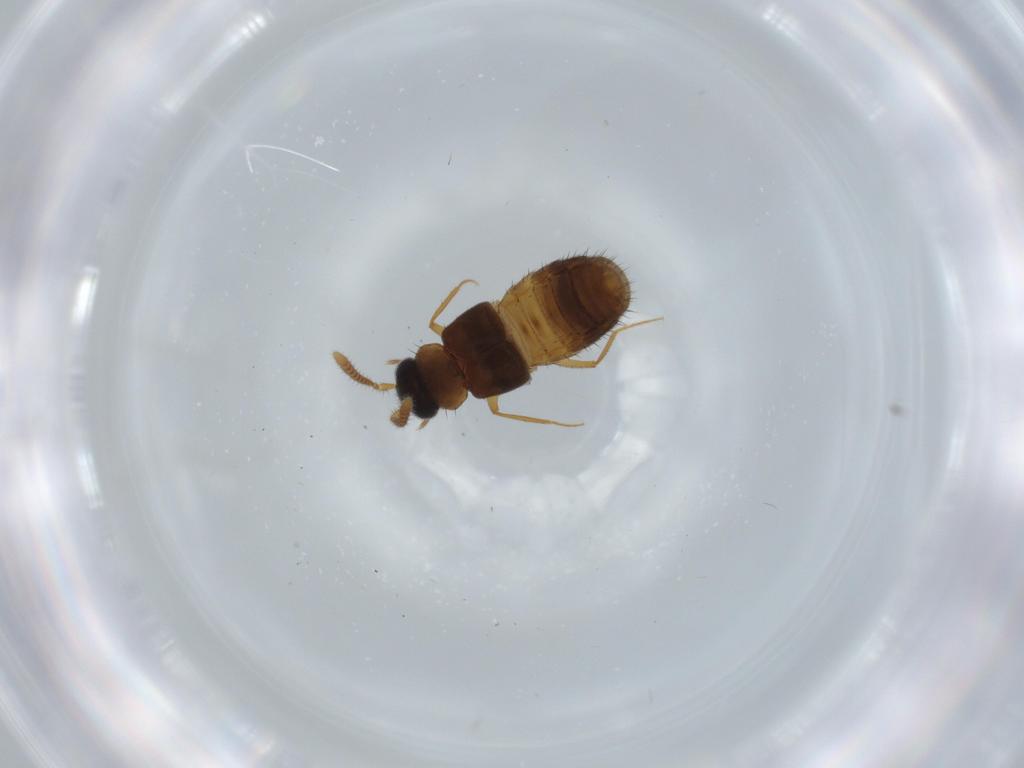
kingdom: Animalia
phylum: Arthropoda
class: Insecta
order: Coleoptera
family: Staphylinidae
